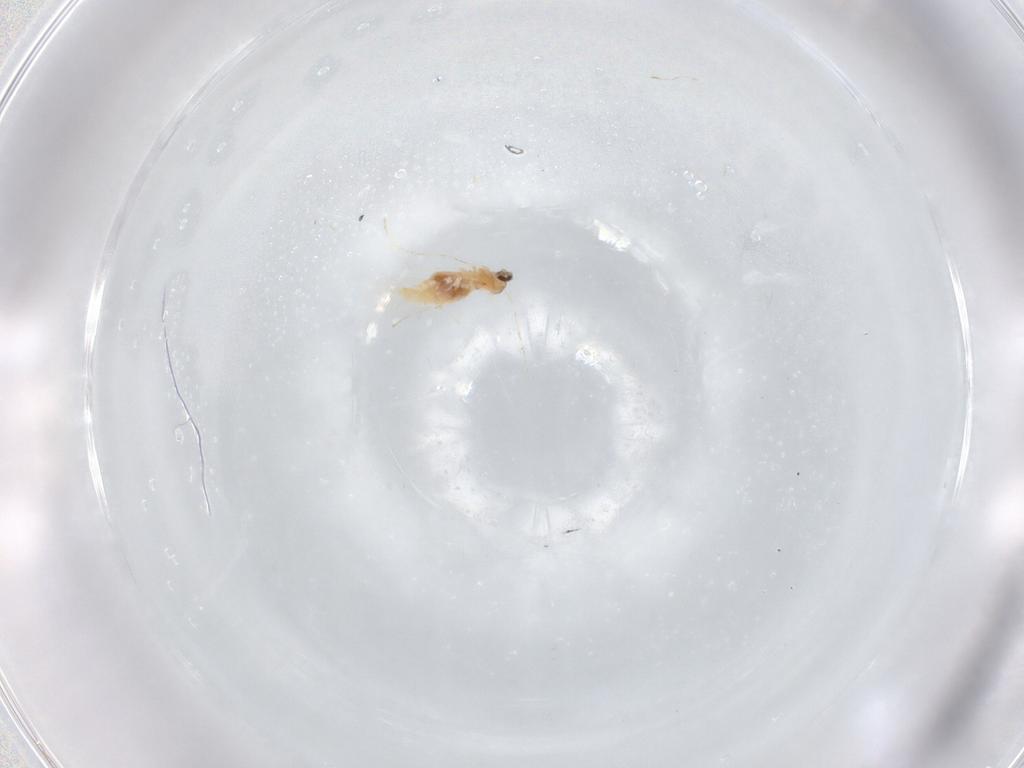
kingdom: Animalia
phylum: Arthropoda
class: Insecta
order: Diptera
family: Cecidomyiidae
